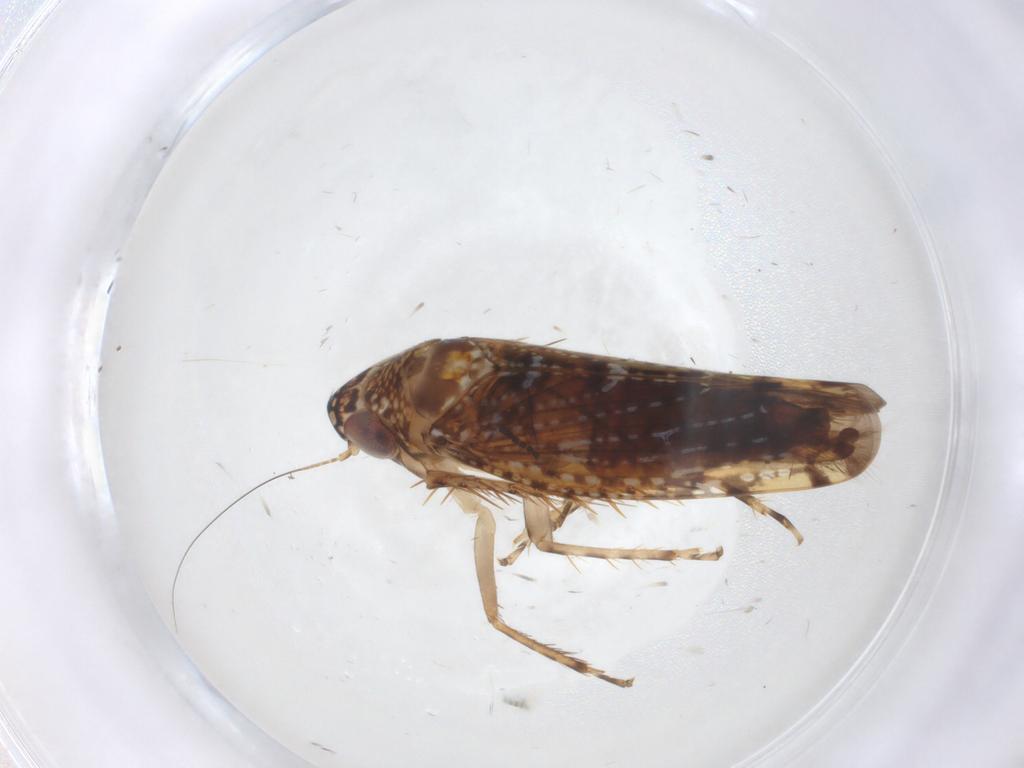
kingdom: Animalia
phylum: Arthropoda
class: Insecta
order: Hemiptera
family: Cicadellidae
